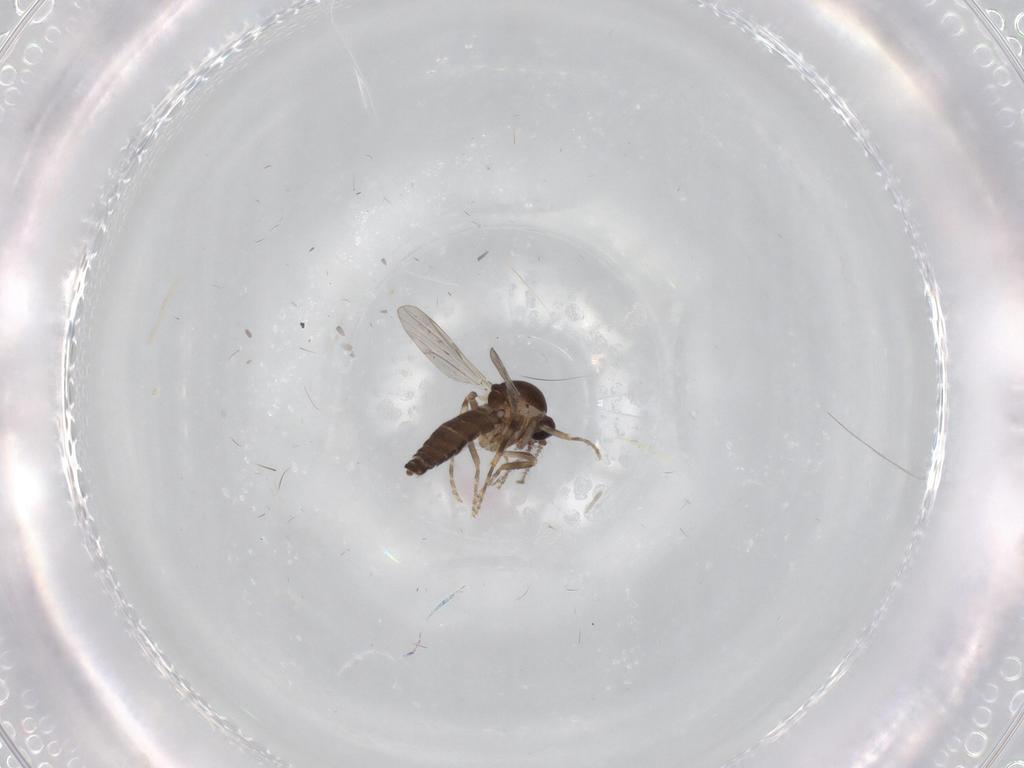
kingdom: Animalia
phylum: Arthropoda
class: Insecta
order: Diptera
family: Ceratopogonidae
